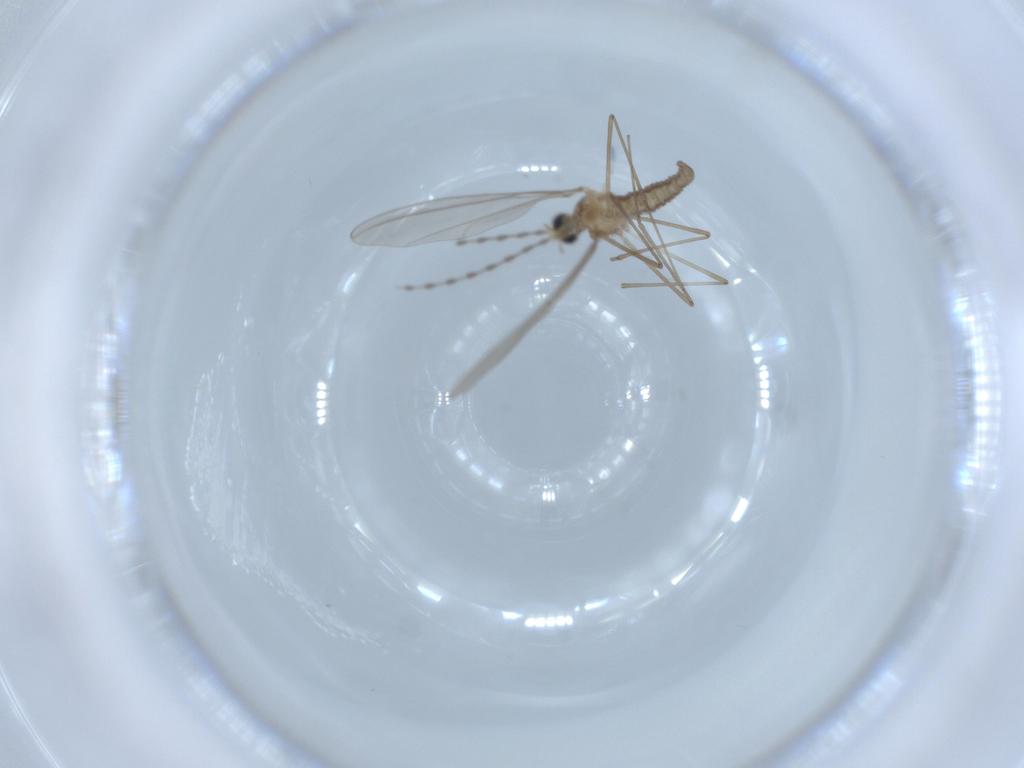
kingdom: Animalia
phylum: Arthropoda
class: Insecta
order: Diptera
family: Cecidomyiidae
